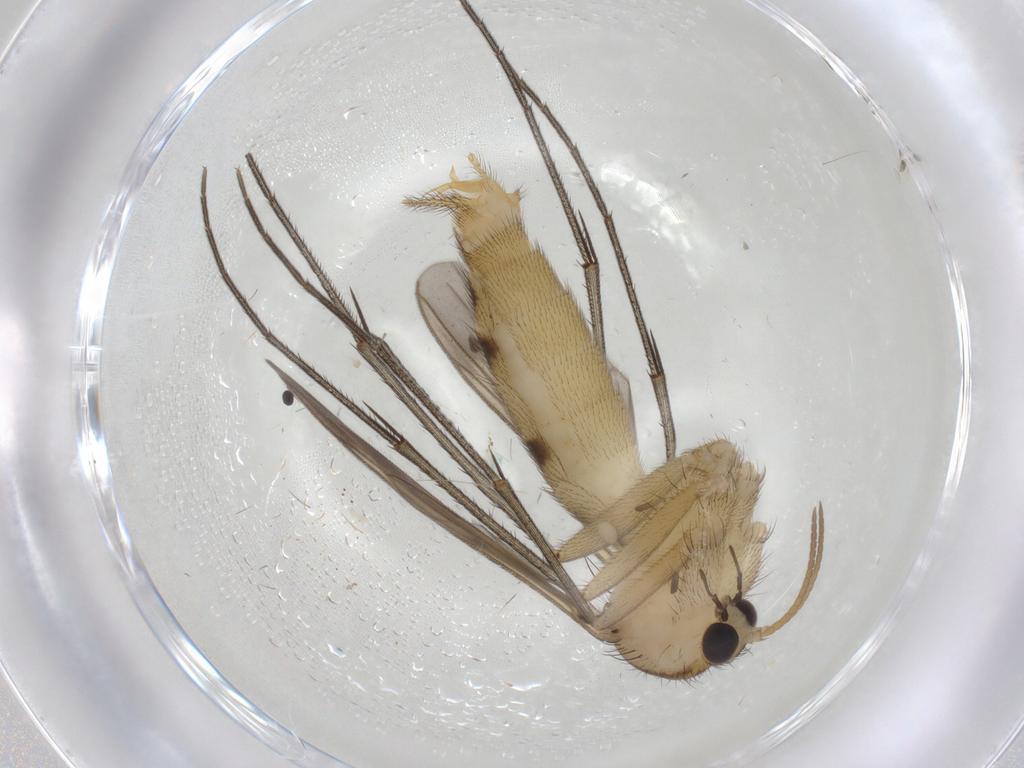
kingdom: Animalia
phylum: Arthropoda
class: Insecta
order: Diptera
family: Mycetophilidae
